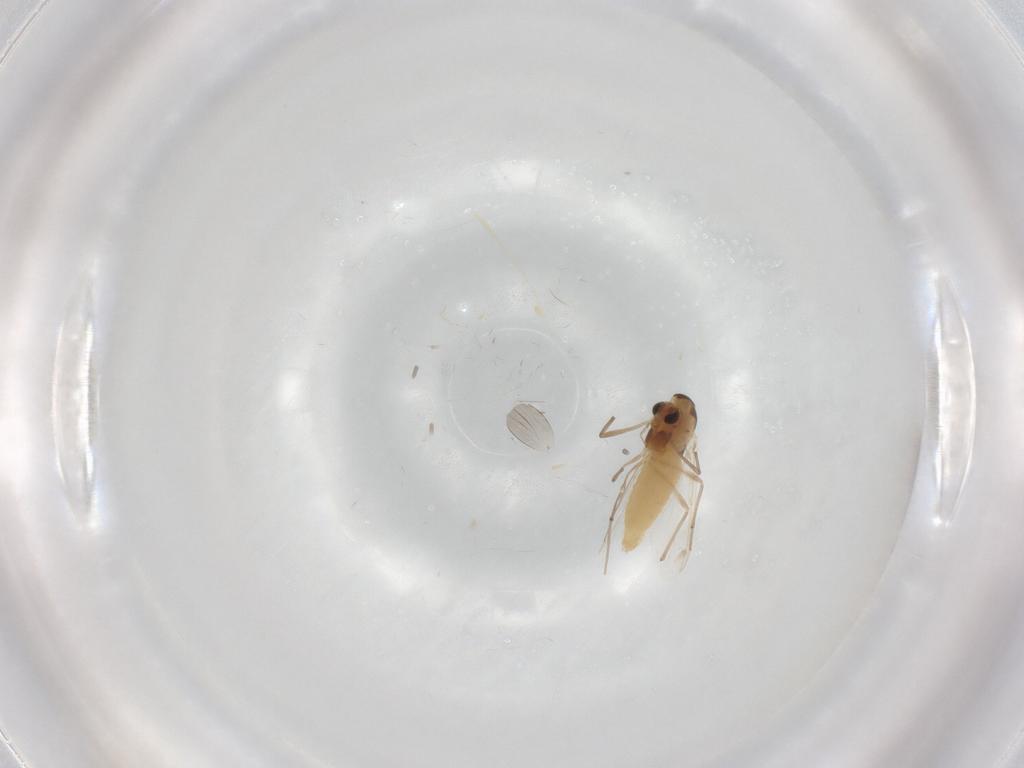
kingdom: Animalia
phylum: Arthropoda
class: Insecta
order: Diptera
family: Chironomidae
